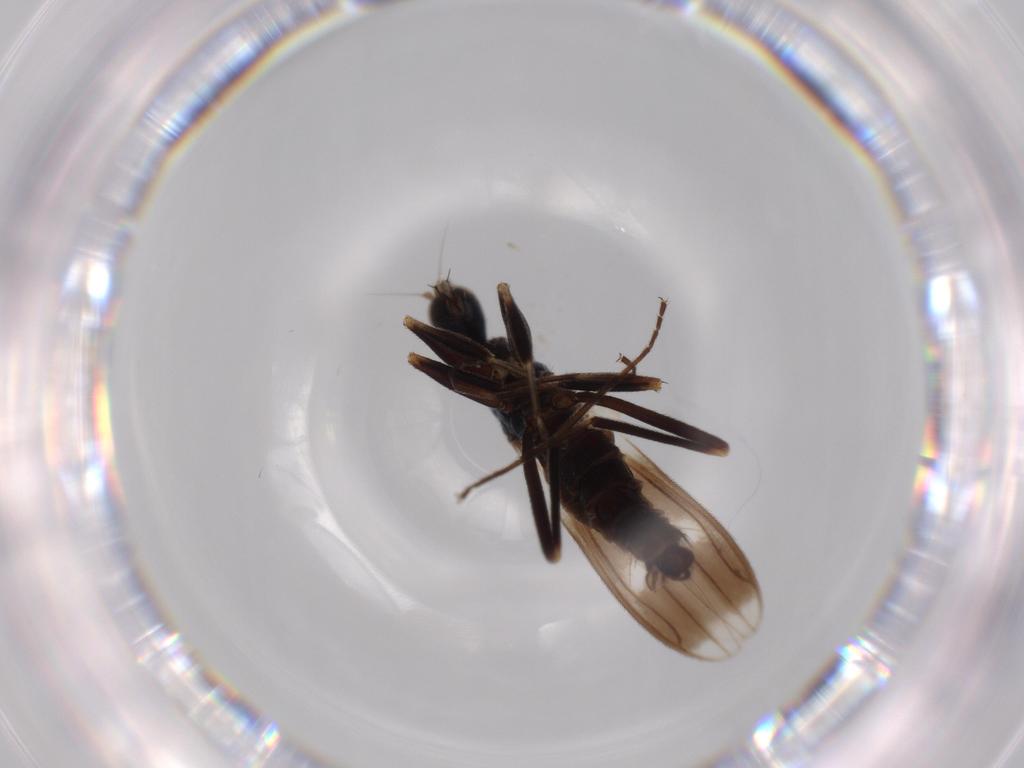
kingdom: Animalia
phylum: Arthropoda
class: Insecta
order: Diptera
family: Hybotidae
